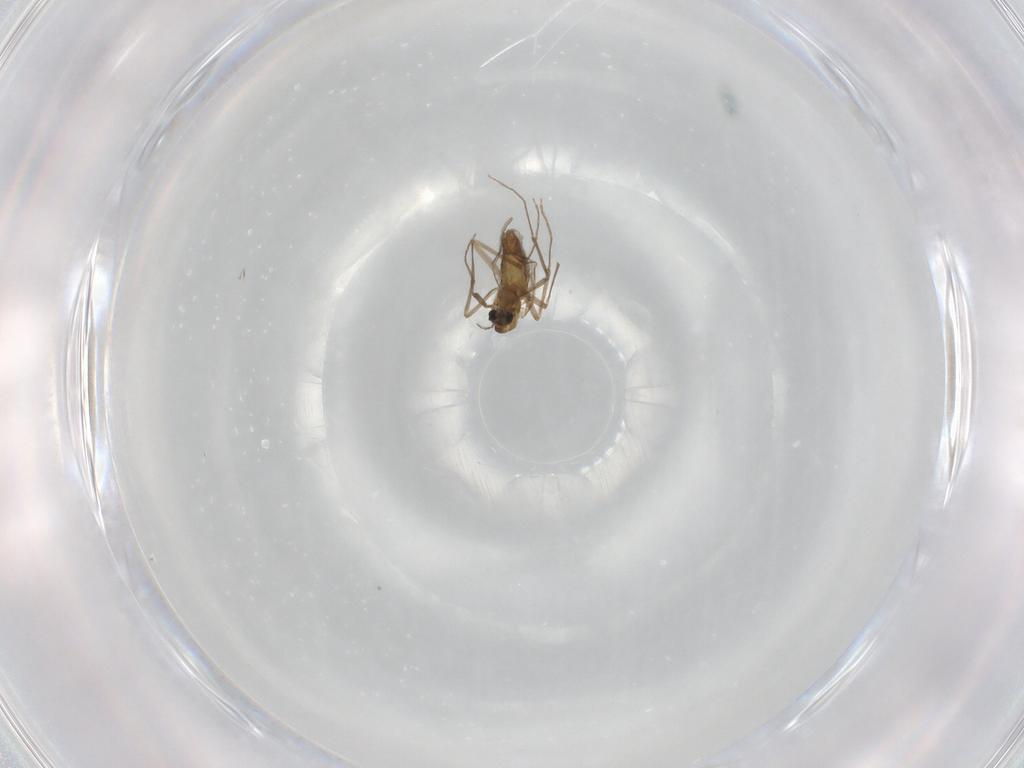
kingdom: Animalia
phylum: Arthropoda
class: Insecta
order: Diptera
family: Chironomidae
